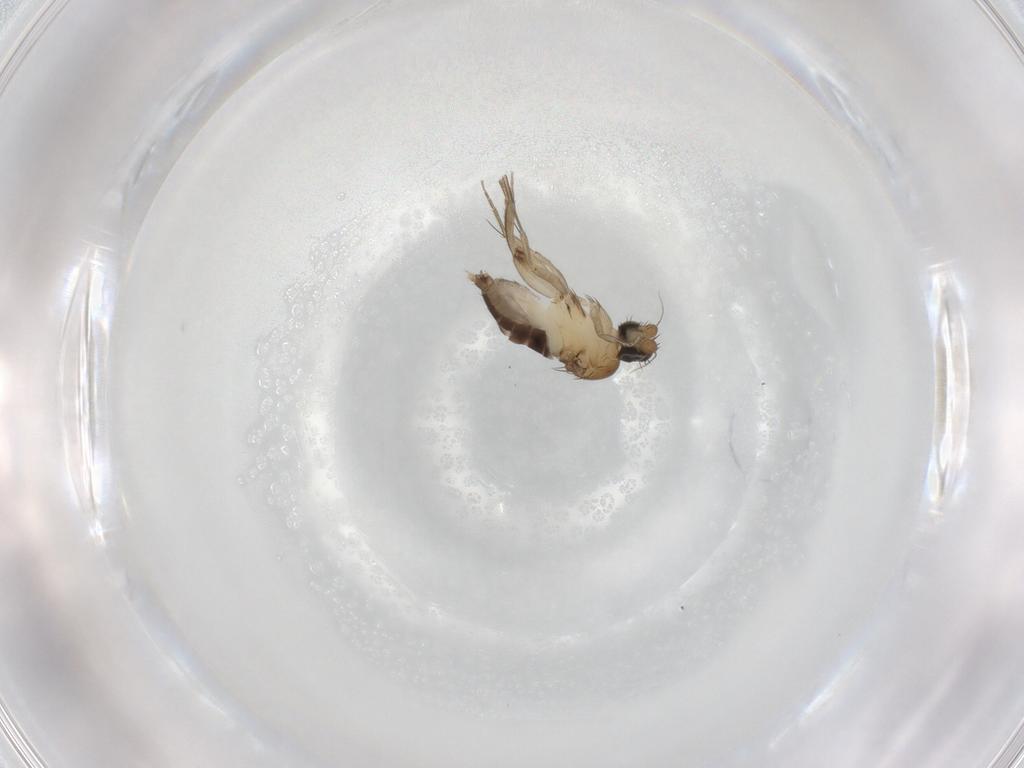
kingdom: Animalia
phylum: Arthropoda
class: Insecta
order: Diptera
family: Phoridae
